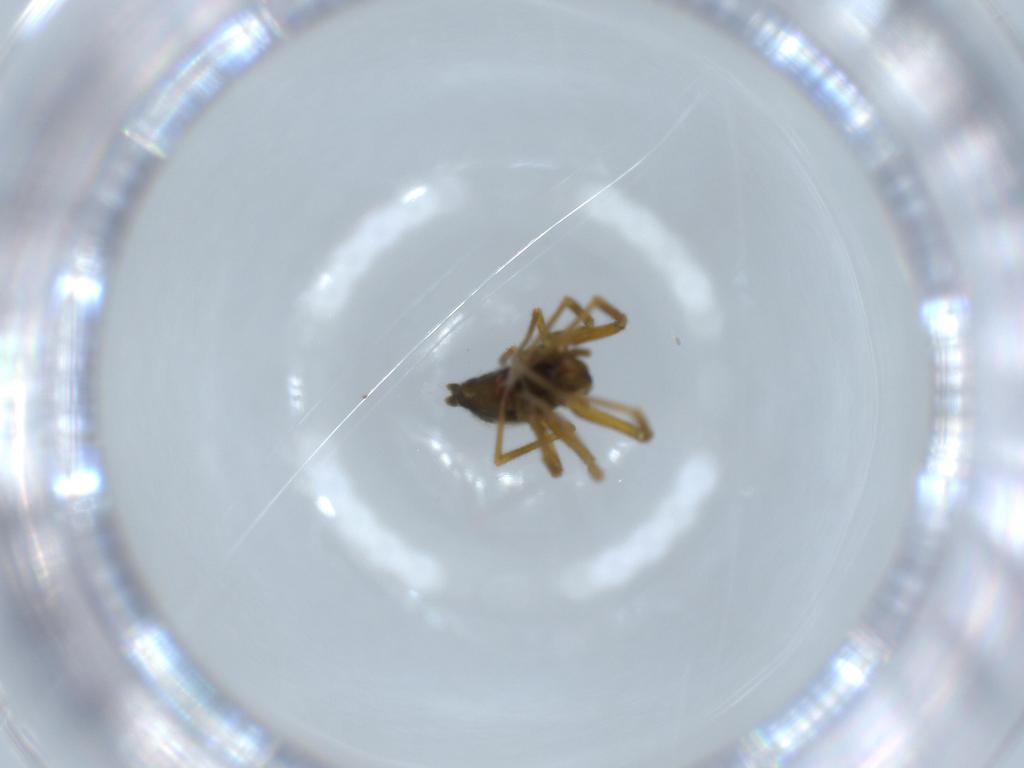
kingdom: Animalia
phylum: Arthropoda
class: Arachnida
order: Araneae
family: Linyphiidae
